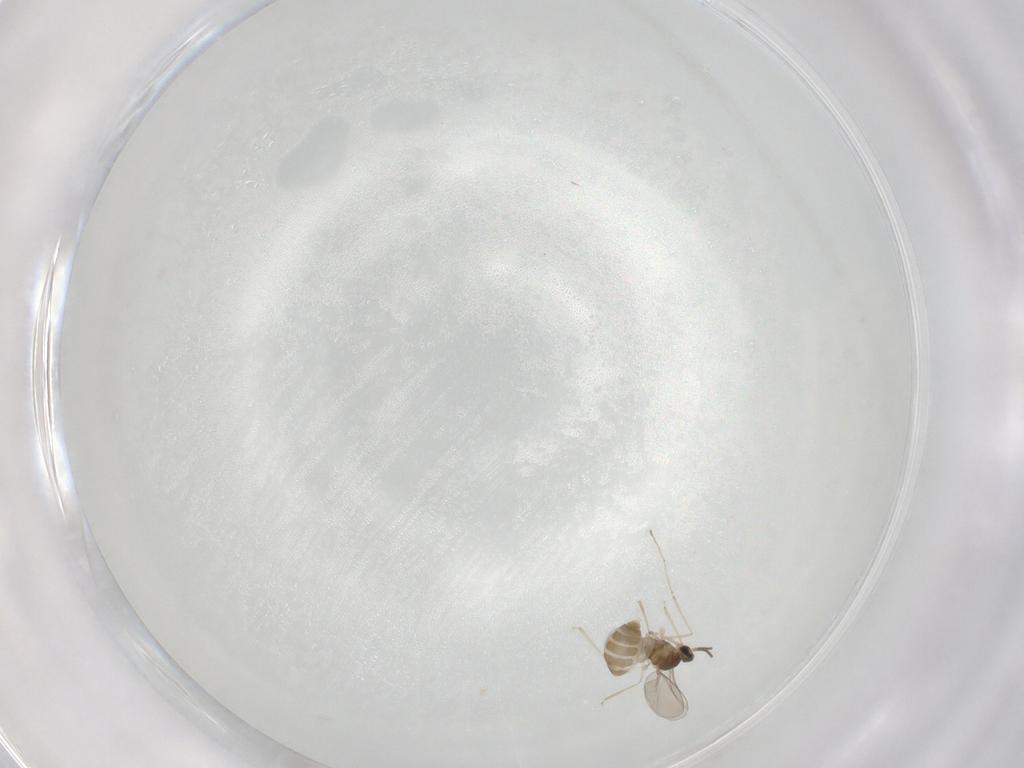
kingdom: Animalia
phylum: Arthropoda
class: Insecta
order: Diptera
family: Cecidomyiidae
